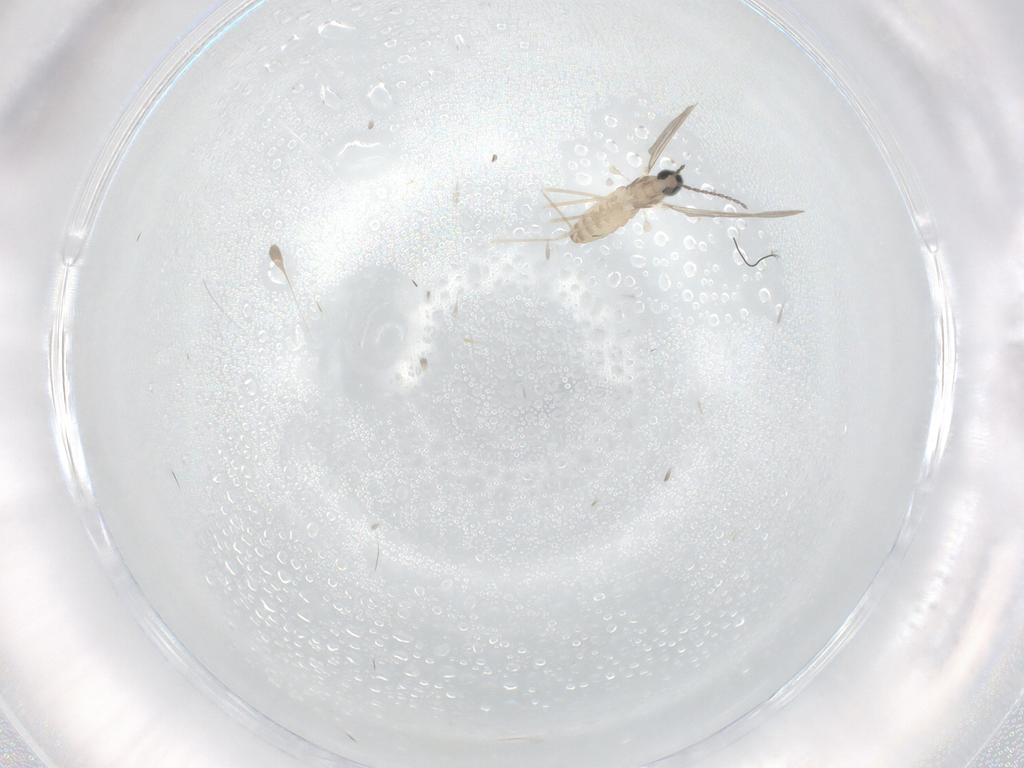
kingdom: Animalia
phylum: Arthropoda
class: Insecta
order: Diptera
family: Cecidomyiidae
